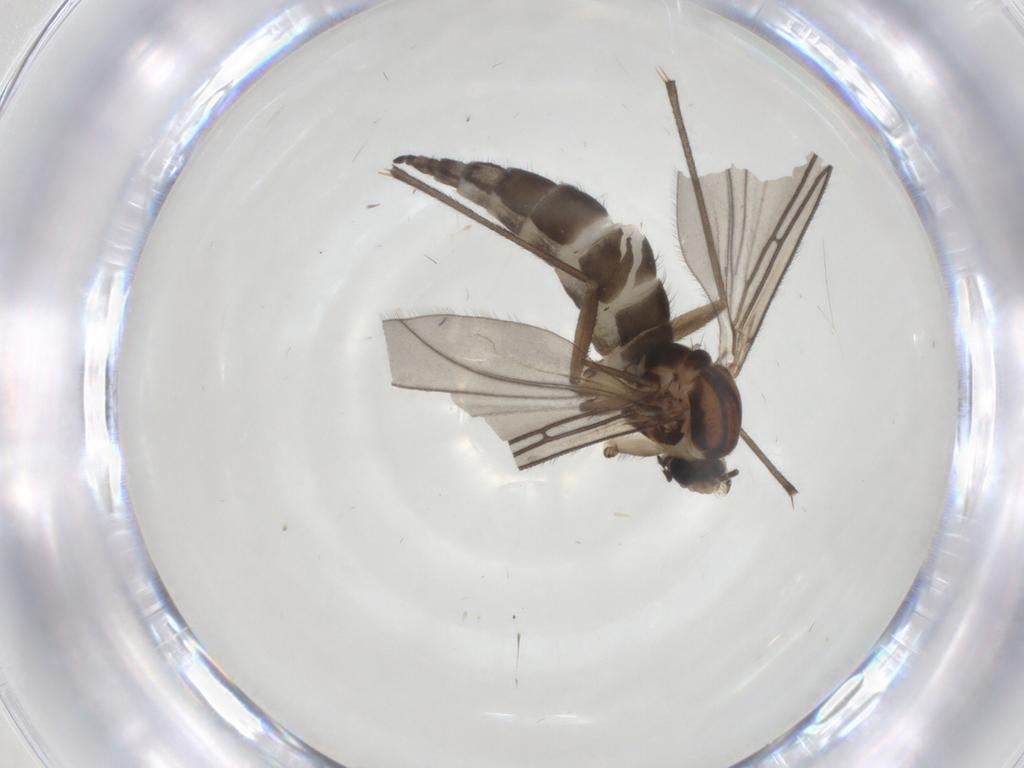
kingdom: Animalia
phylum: Arthropoda
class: Insecta
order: Diptera
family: Sciaridae
